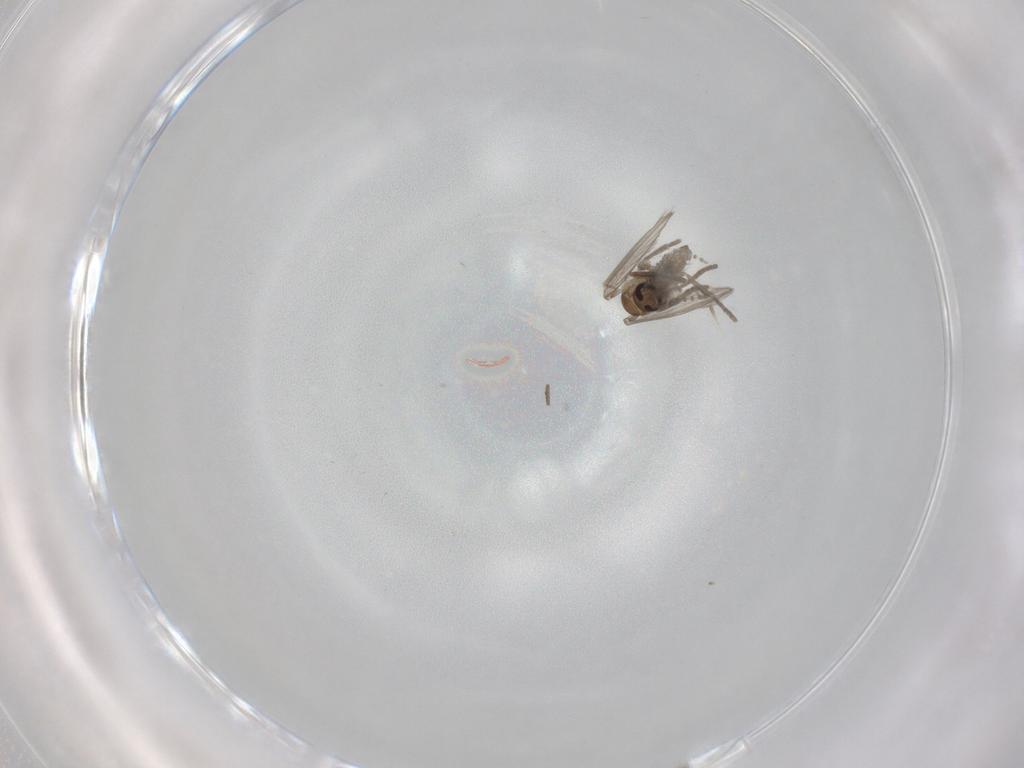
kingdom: Animalia
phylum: Arthropoda
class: Insecta
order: Diptera
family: Psychodidae
